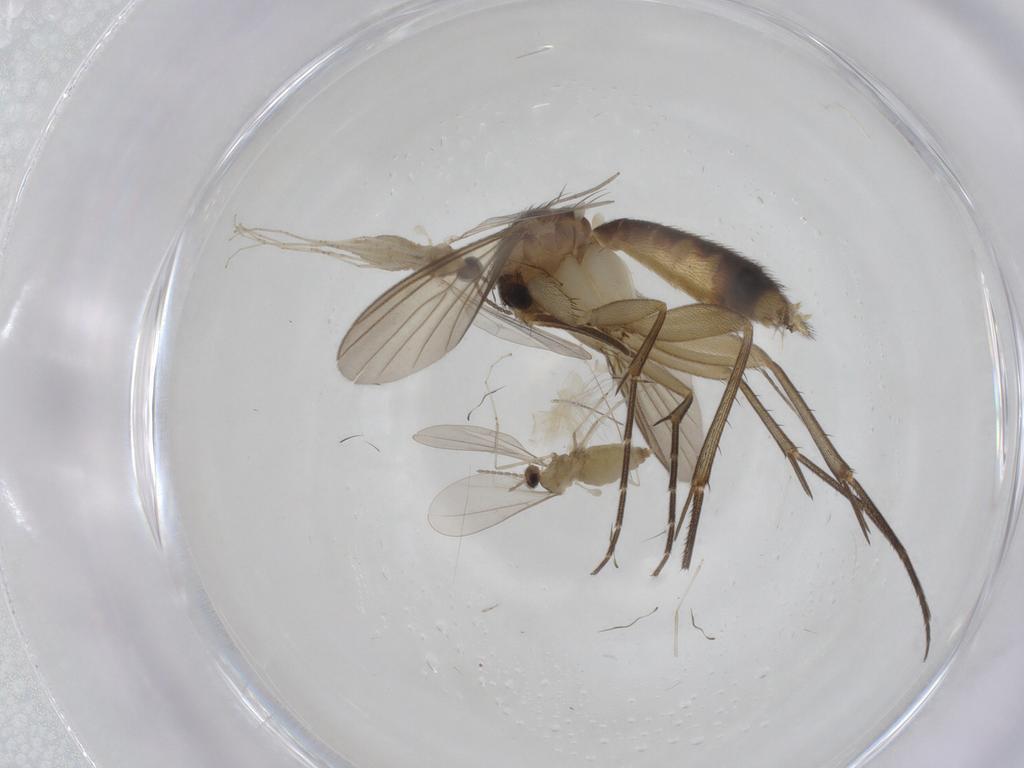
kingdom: Animalia
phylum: Arthropoda
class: Insecta
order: Diptera
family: Cecidomyiidae
